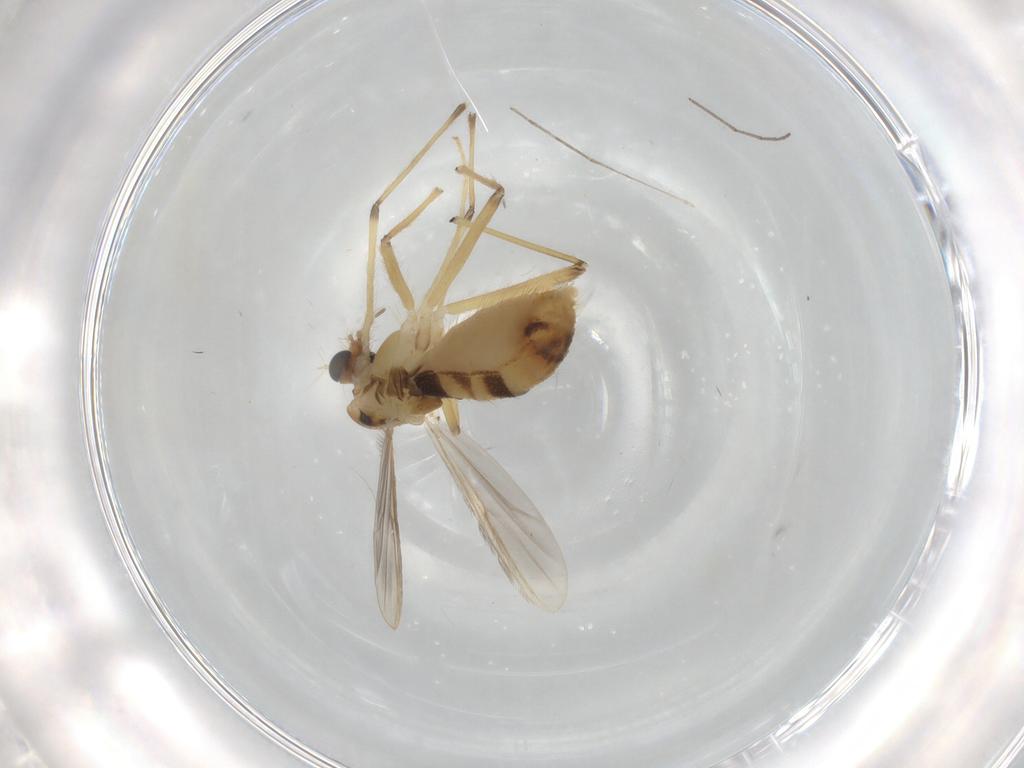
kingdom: Animalia
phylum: Arthropoda
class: Insecta
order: Diptera
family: Chironomidae
